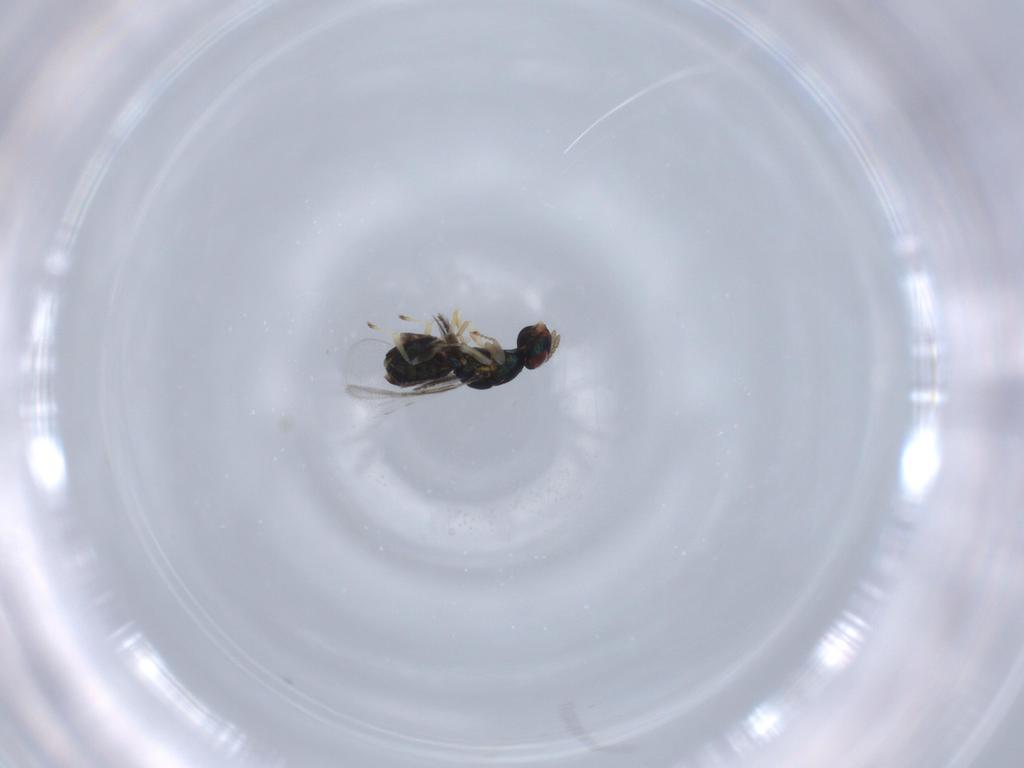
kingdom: Animalia
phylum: Arthropoda
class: Insecta
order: Hymenoptera
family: Eulophidae
